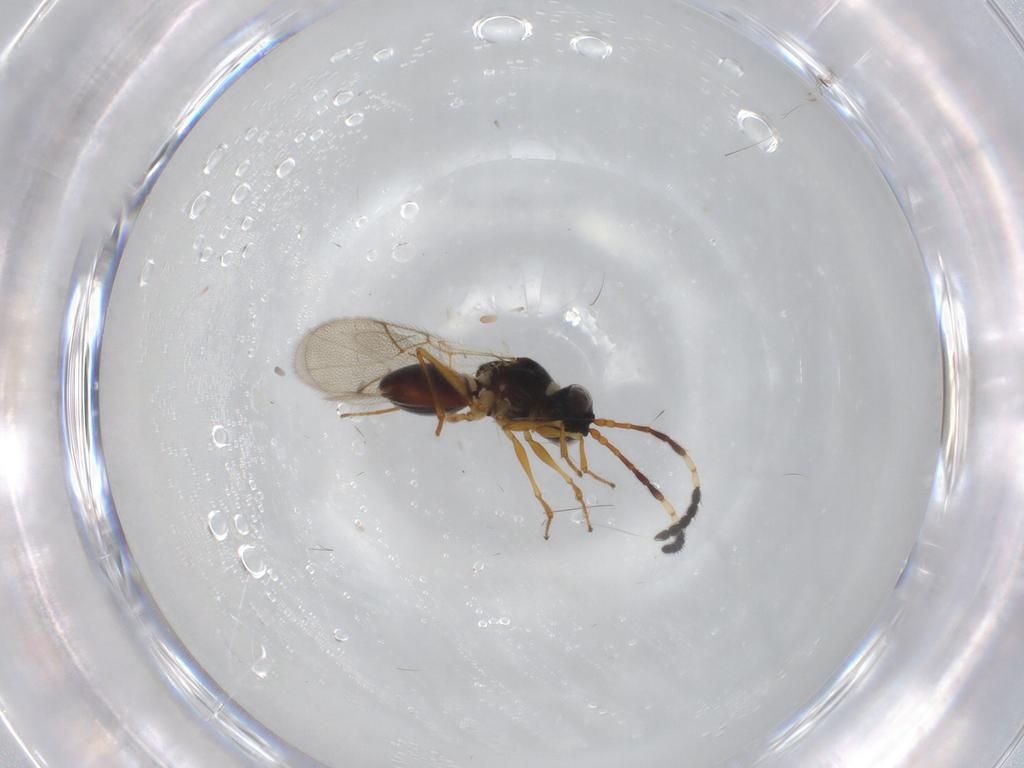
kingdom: Animalia
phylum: Arthropoda
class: Insecta
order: Hymenoptera
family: Figitidae
